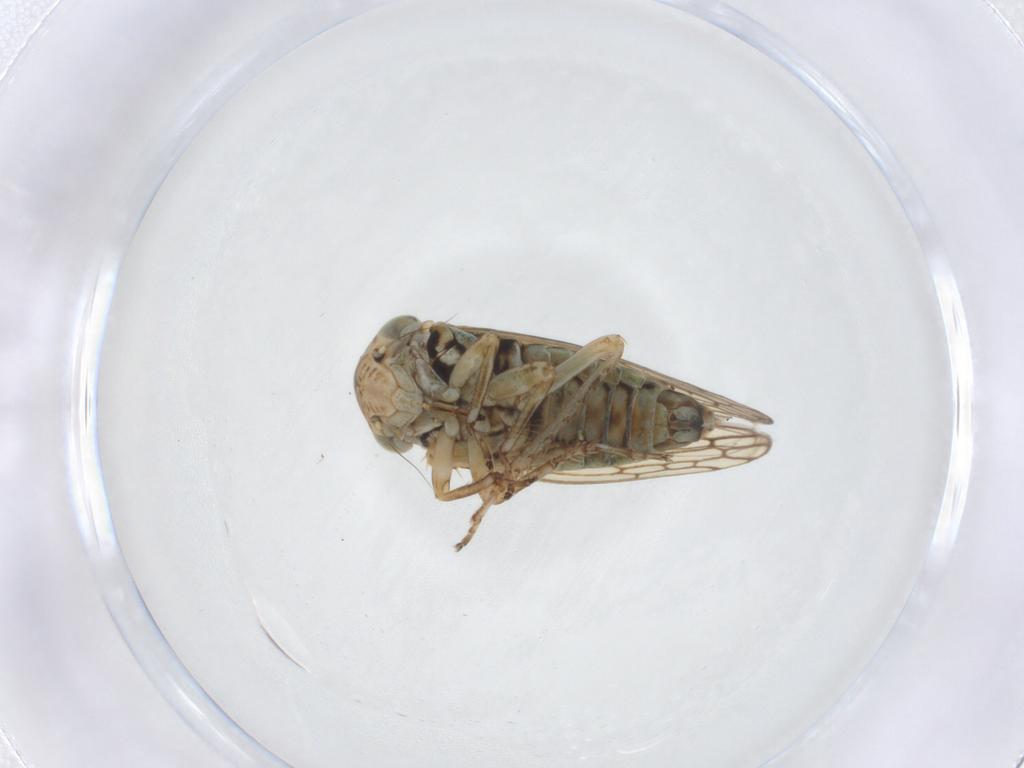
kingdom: Animalia
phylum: Arthropoda
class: Insecta
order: Hemiptera
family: Cicadellidae
